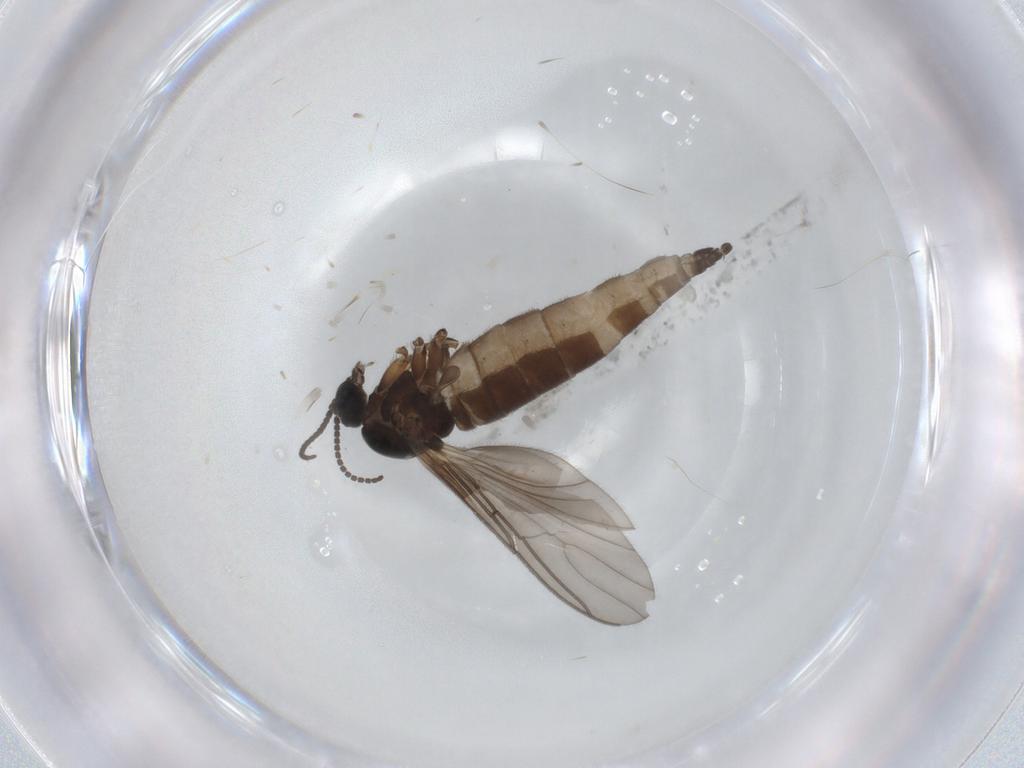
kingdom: Animalia
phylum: Arthropoda
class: Insecta
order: Diptera
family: Sciaridae
